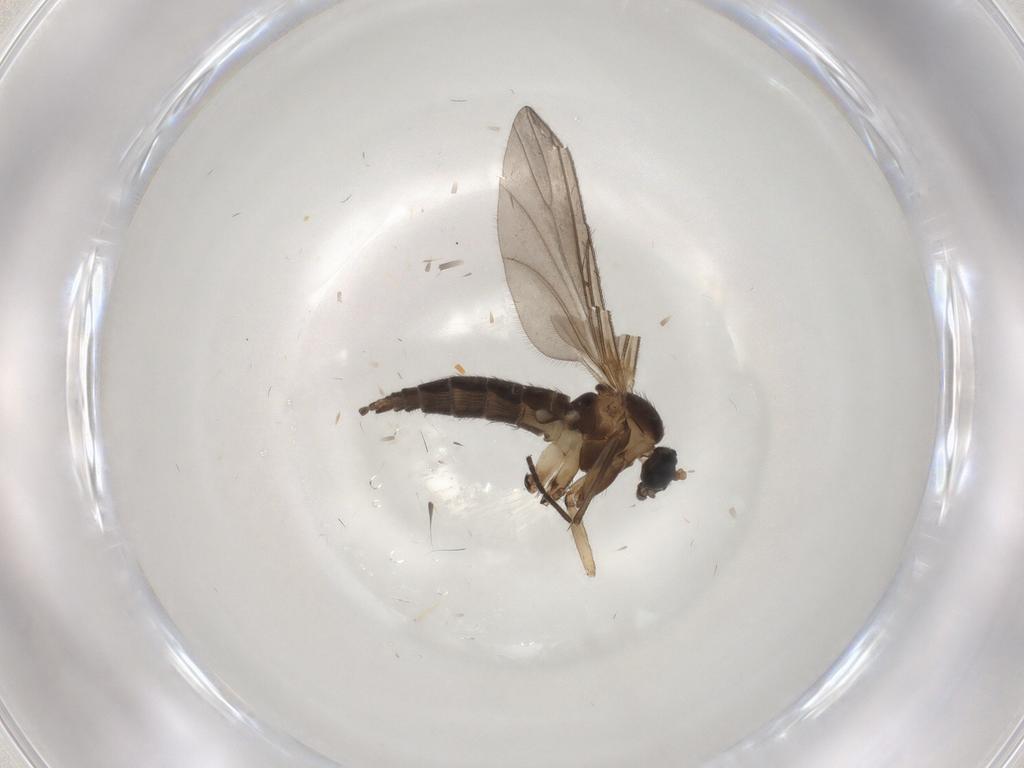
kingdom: Animalia
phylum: Arthropoda
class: Insecta
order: Diptera
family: Sciaridae
